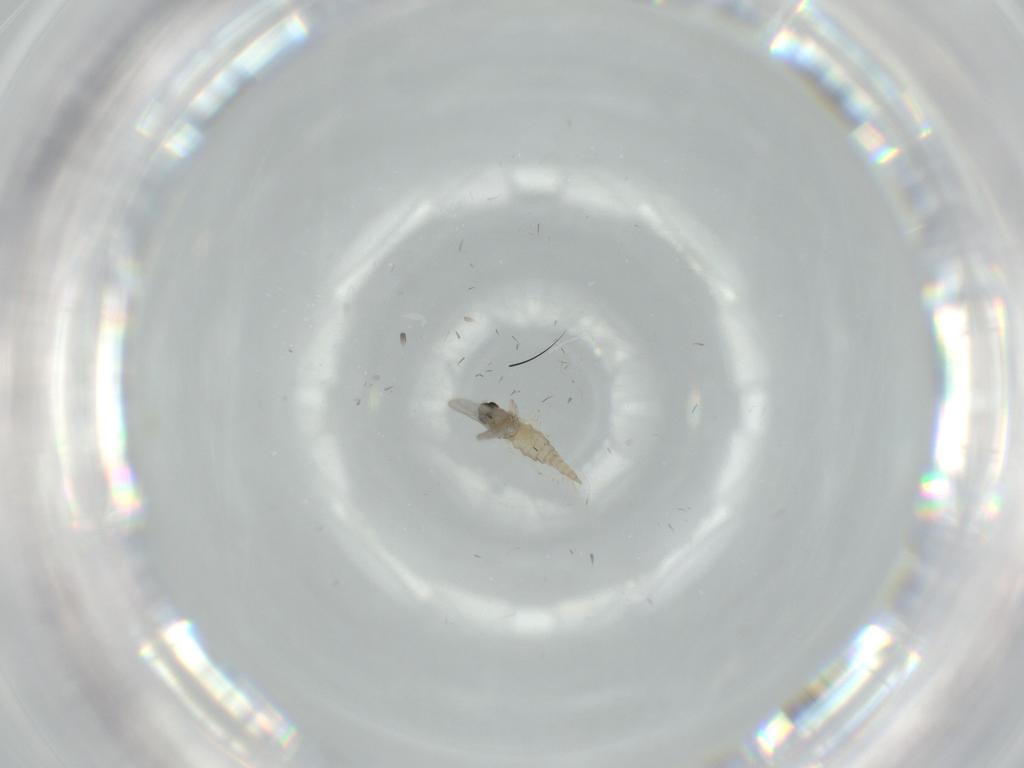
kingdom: Animalia
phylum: Arthropoda
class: Insecta
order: Diptera
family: Cecidomyiidae
